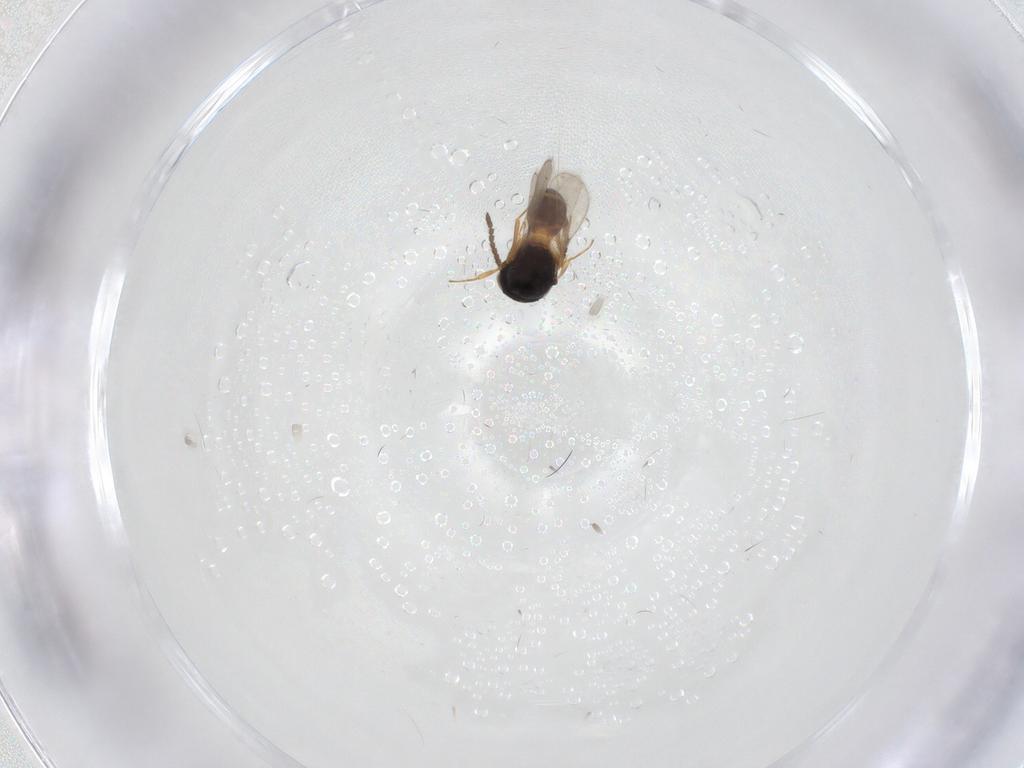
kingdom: Animalia
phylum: Arthropoda
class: Insecta
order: Hymenoptera
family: Scelionidae
